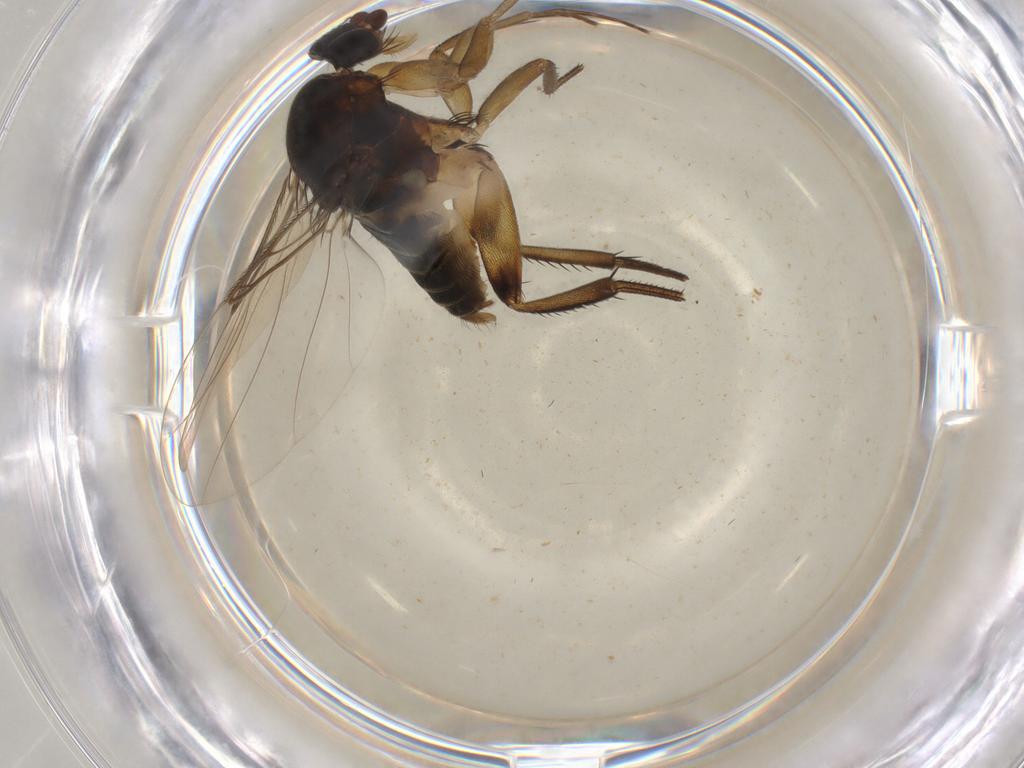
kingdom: Animalia
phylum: Arthropoda
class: Insecta
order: Diptera
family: Phoridae
